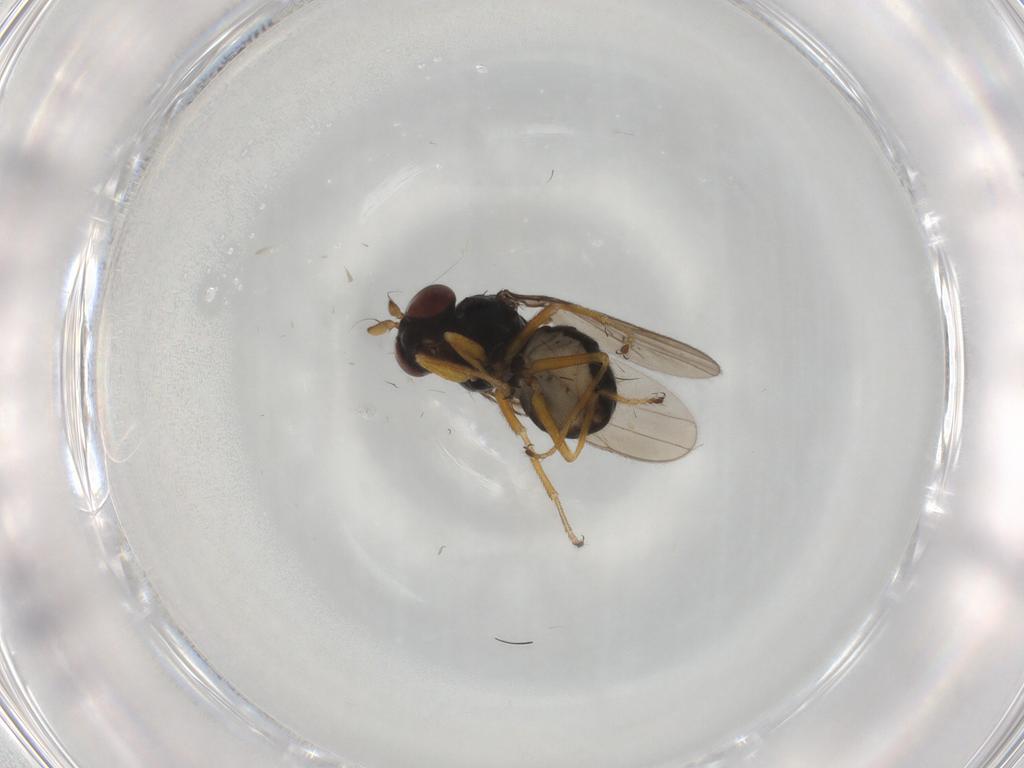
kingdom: Animalia
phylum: Arthropoda
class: Insecta
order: Diptera
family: Ephydridae
